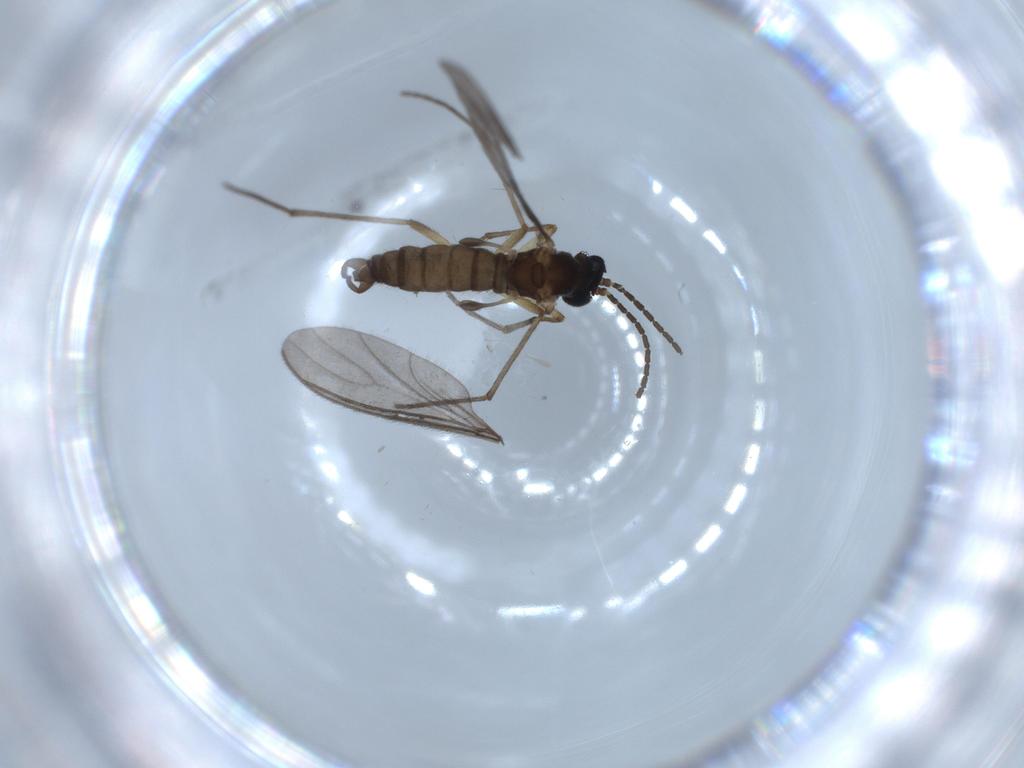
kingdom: Animalia
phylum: Arthropoda
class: Insecta
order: Diptera
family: Sciaridae
